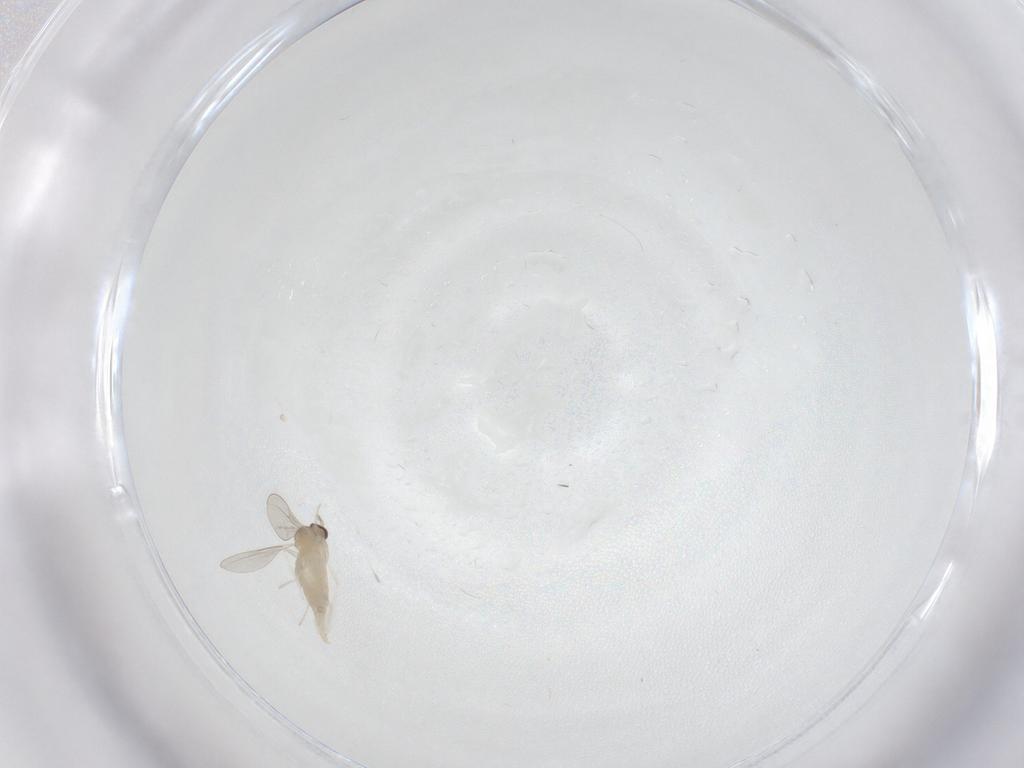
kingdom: Animalia
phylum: Arthropoda
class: Insecta
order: Diptera
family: Cecidomyiidae
